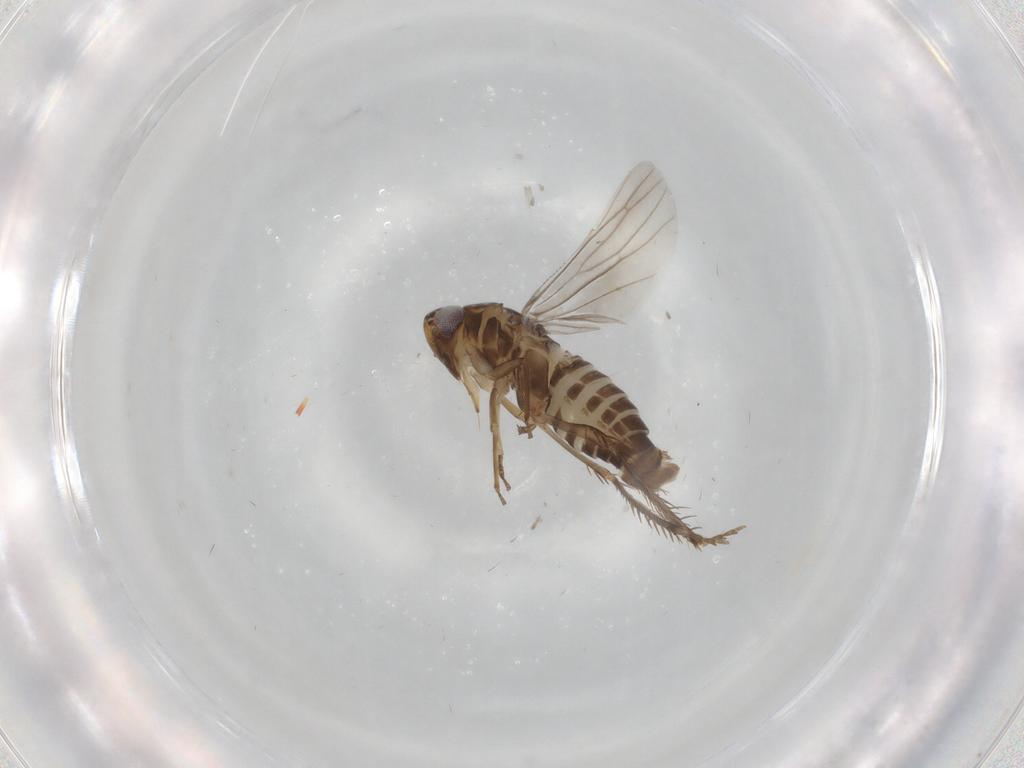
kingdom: Animalia
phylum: Arthropoda
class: Insecta
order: Hemiptera
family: Cicadellidae
